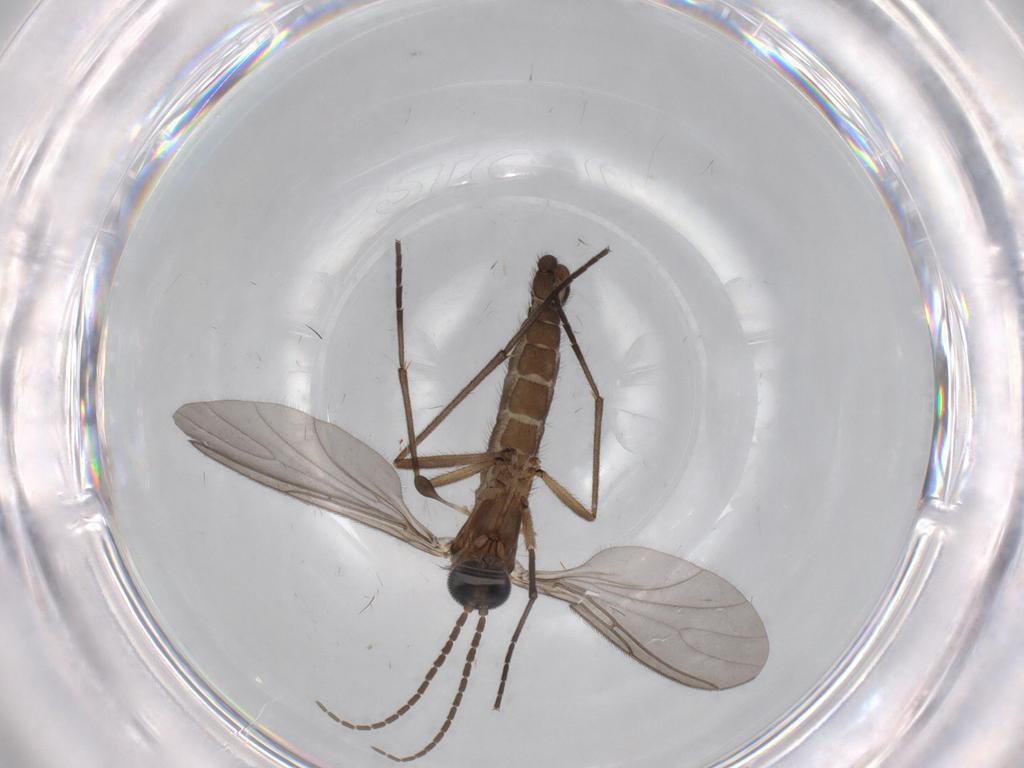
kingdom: Animalia
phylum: Arthropoda
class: Insecta
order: Diptera
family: Sciaridae
